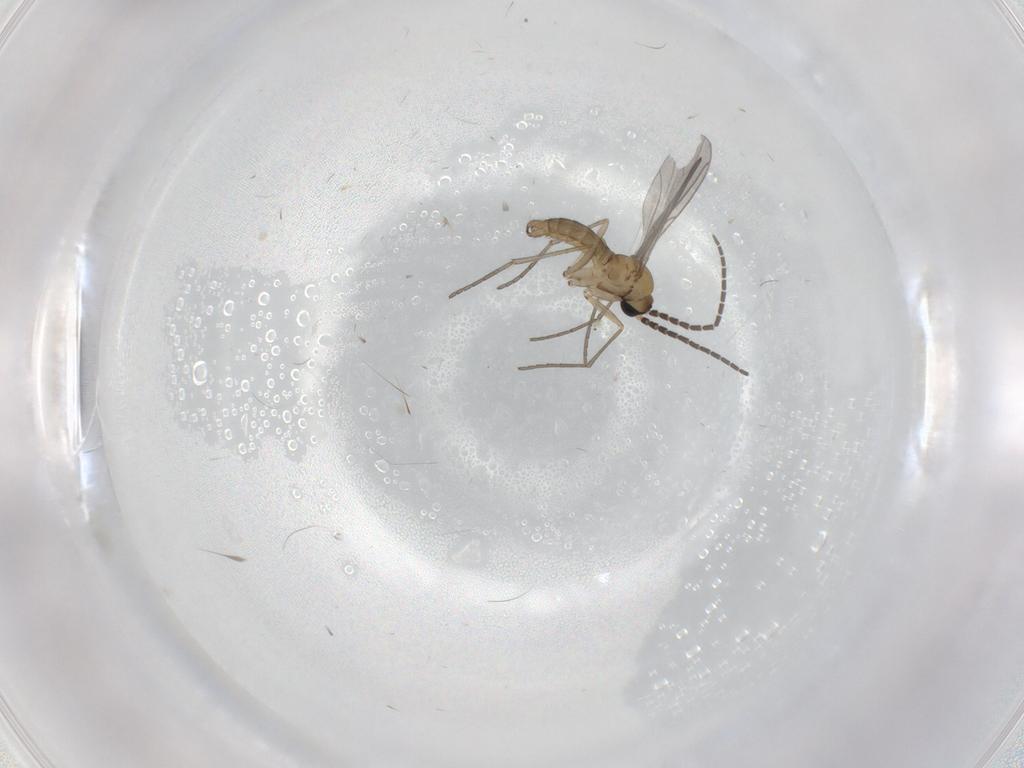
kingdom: Animalia
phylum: Arthropoda
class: Insecta
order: Diptera
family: Sciaridae
